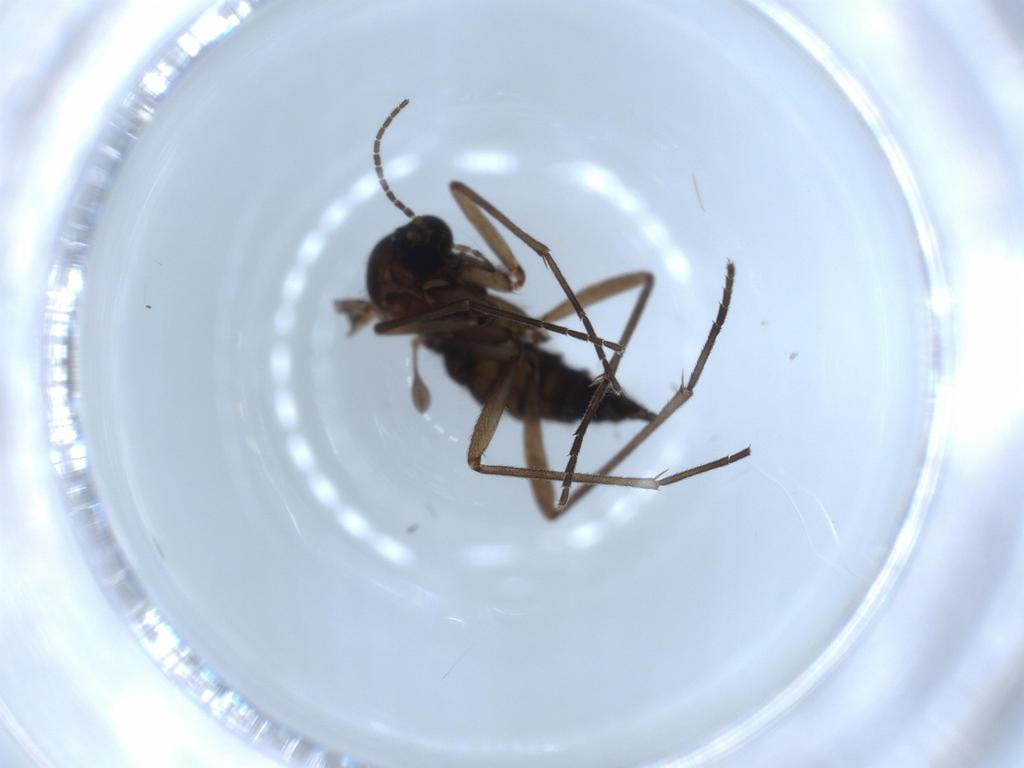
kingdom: Animalia
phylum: Arthropoda
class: Insecta
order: Diptera
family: Sciaridae
